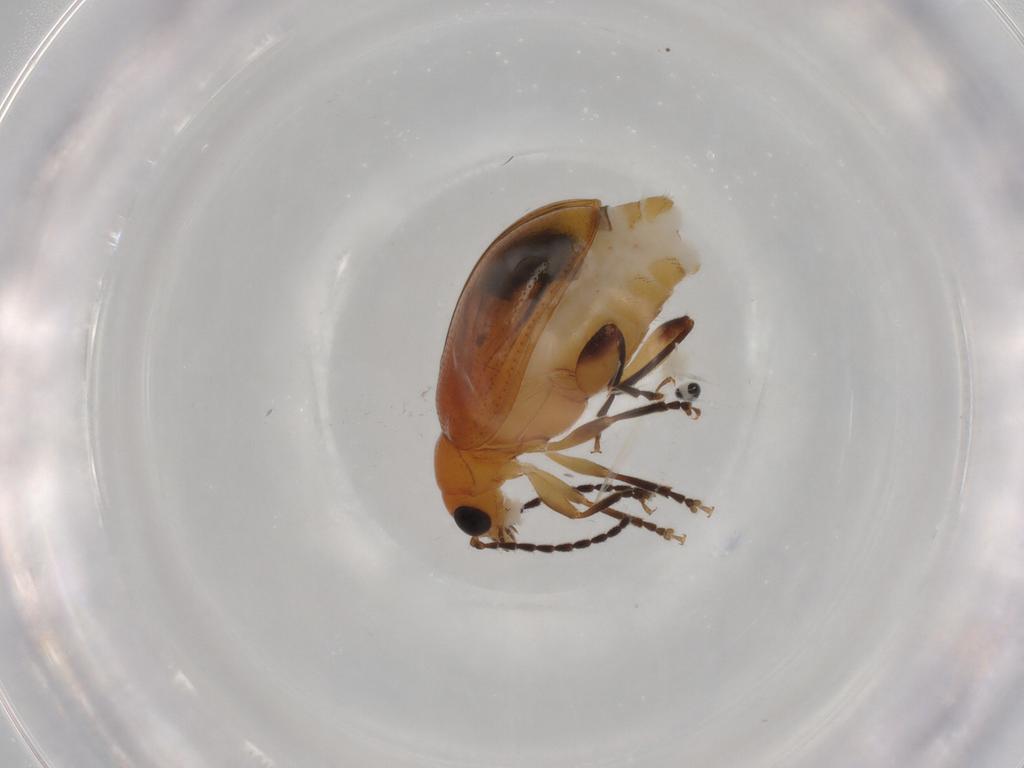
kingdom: Animalia
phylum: Arthropoda
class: Insecta
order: Coleoptera
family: Chrysomelidae
